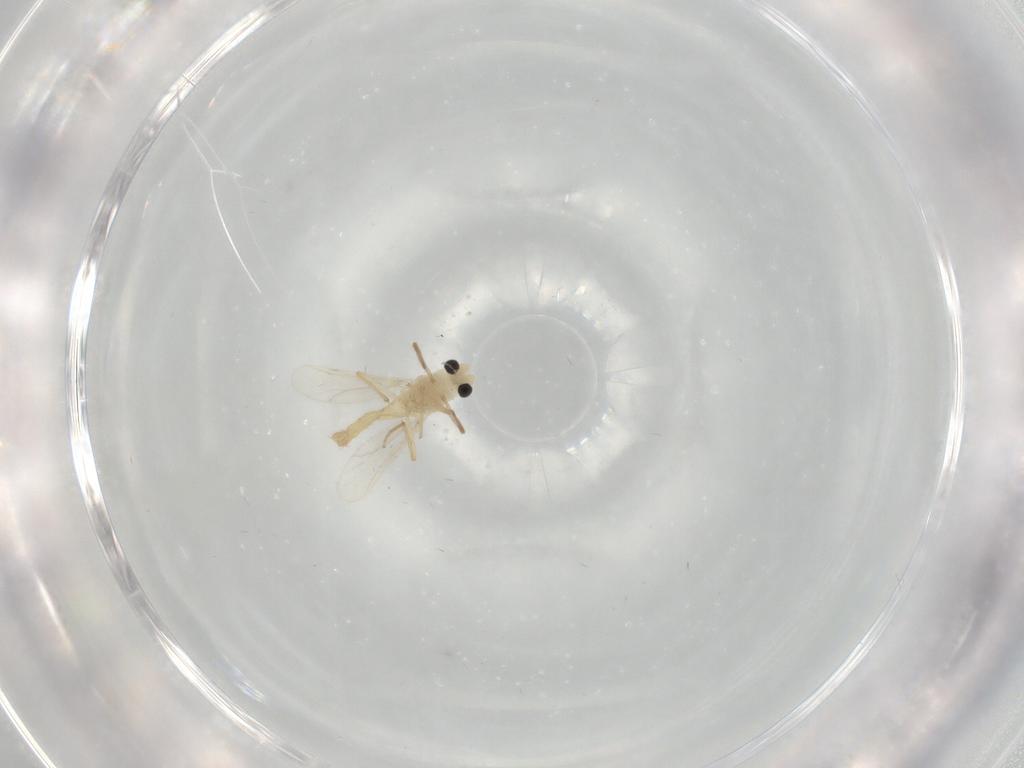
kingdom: Animalia
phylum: Arthropoda
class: Insecta
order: Diptera
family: Chironomidae
